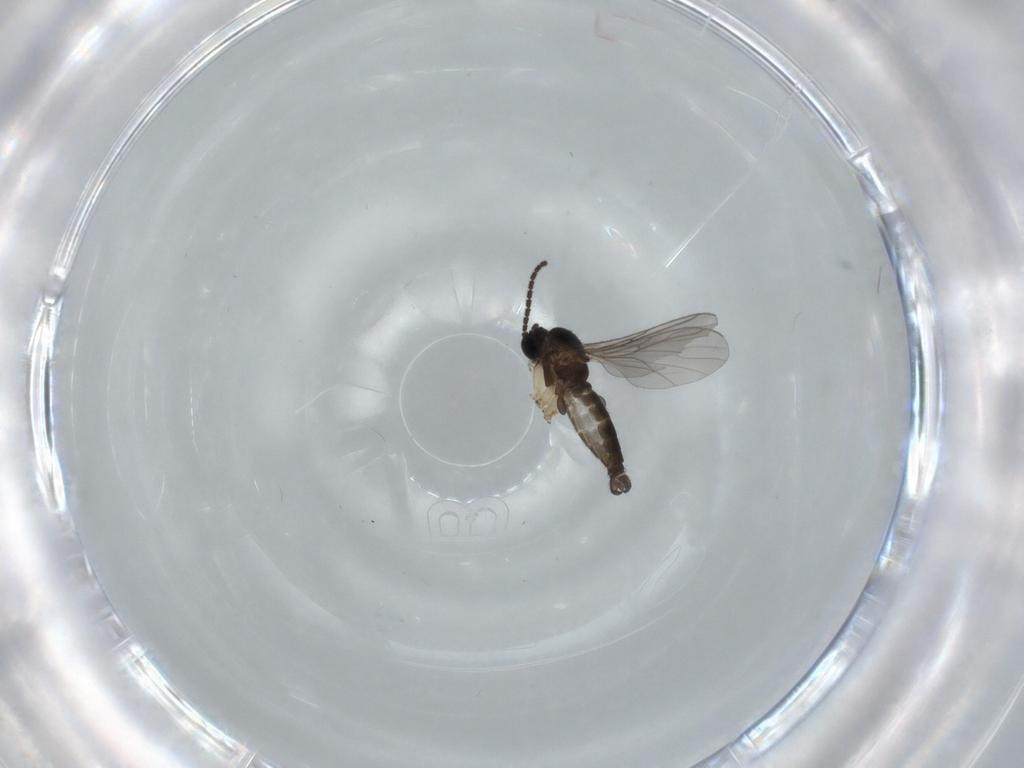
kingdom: Animalia
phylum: Arthropoda
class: Insecta
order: Diptera
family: Sciaridae
